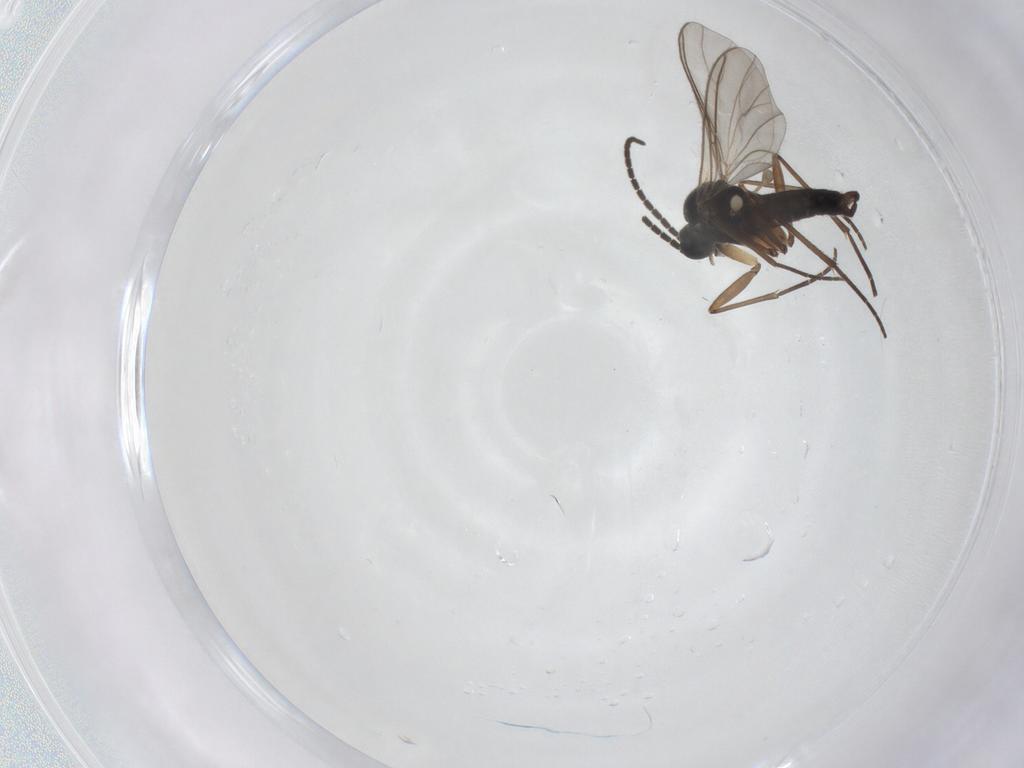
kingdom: Animalia
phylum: Arthropoda
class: Insecta
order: Diptera
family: Sciaridae
